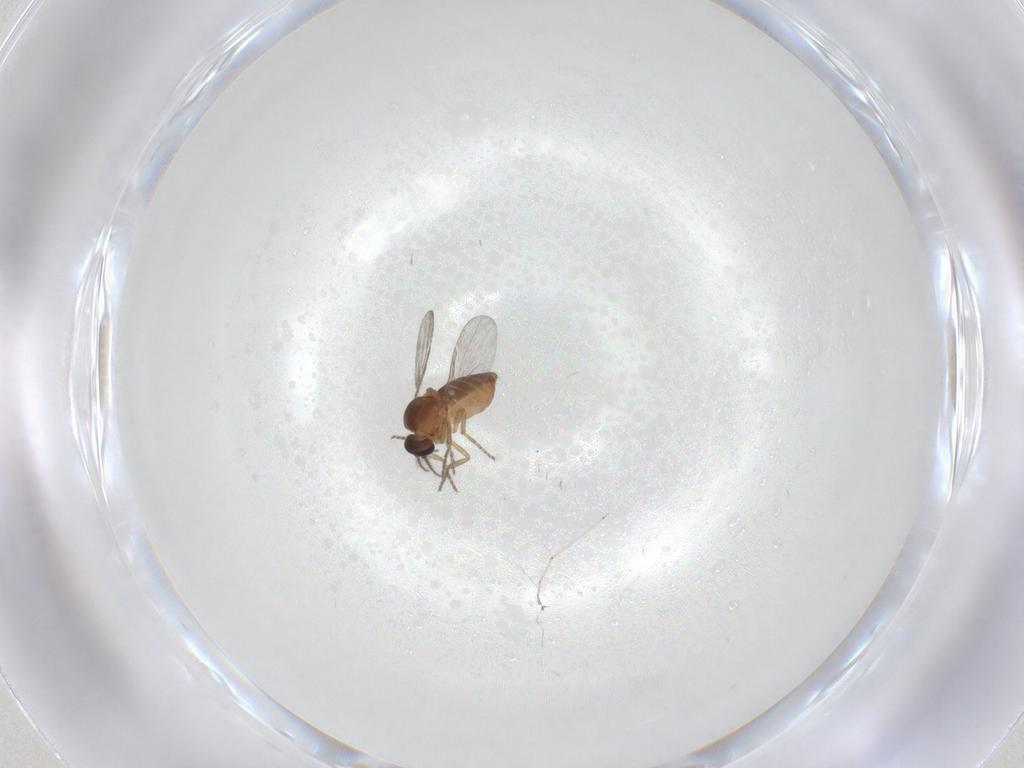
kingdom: Animalia
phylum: Arthropoda
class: Insecta
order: Diptera
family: Ceratopogonidae
